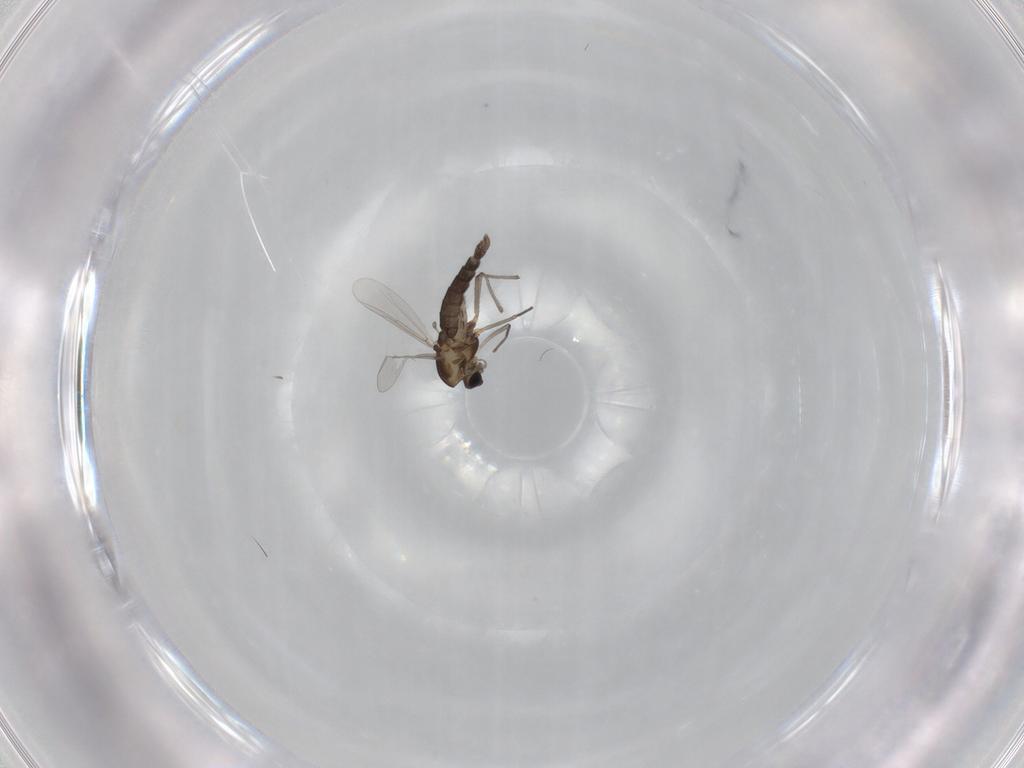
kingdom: Animalia
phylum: Arthropoda
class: Insecta
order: Diptera
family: Chironomidae
